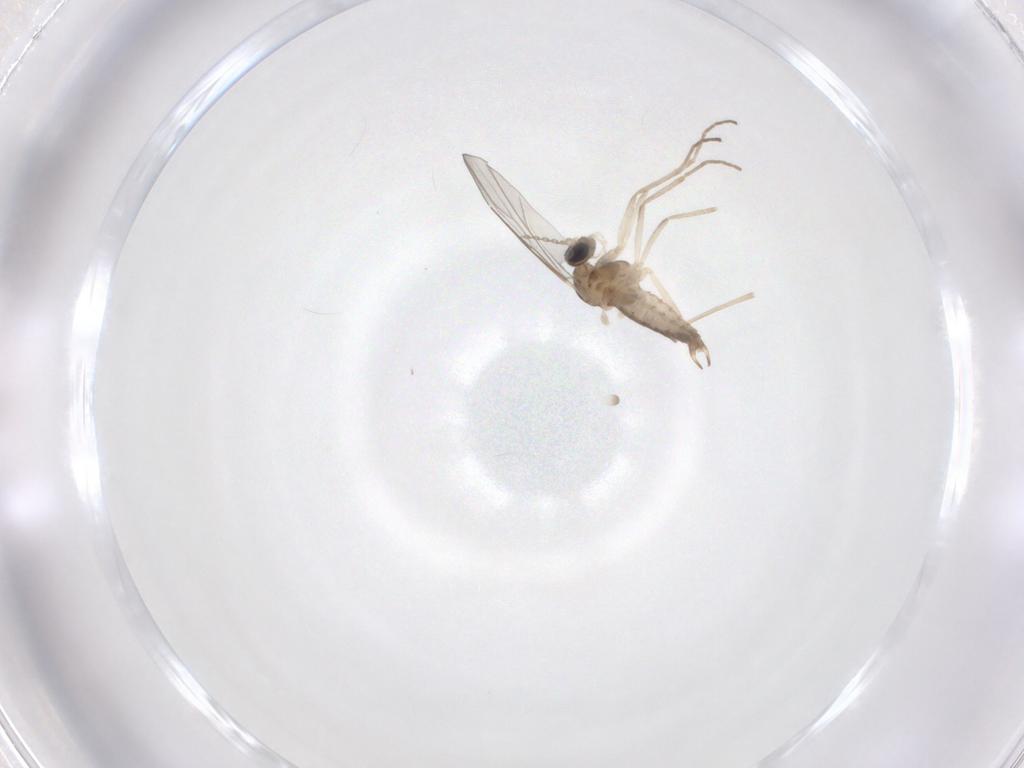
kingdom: Animalia
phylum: Arthropoda
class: Insecta
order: Diptera
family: Cecidomyiidae
